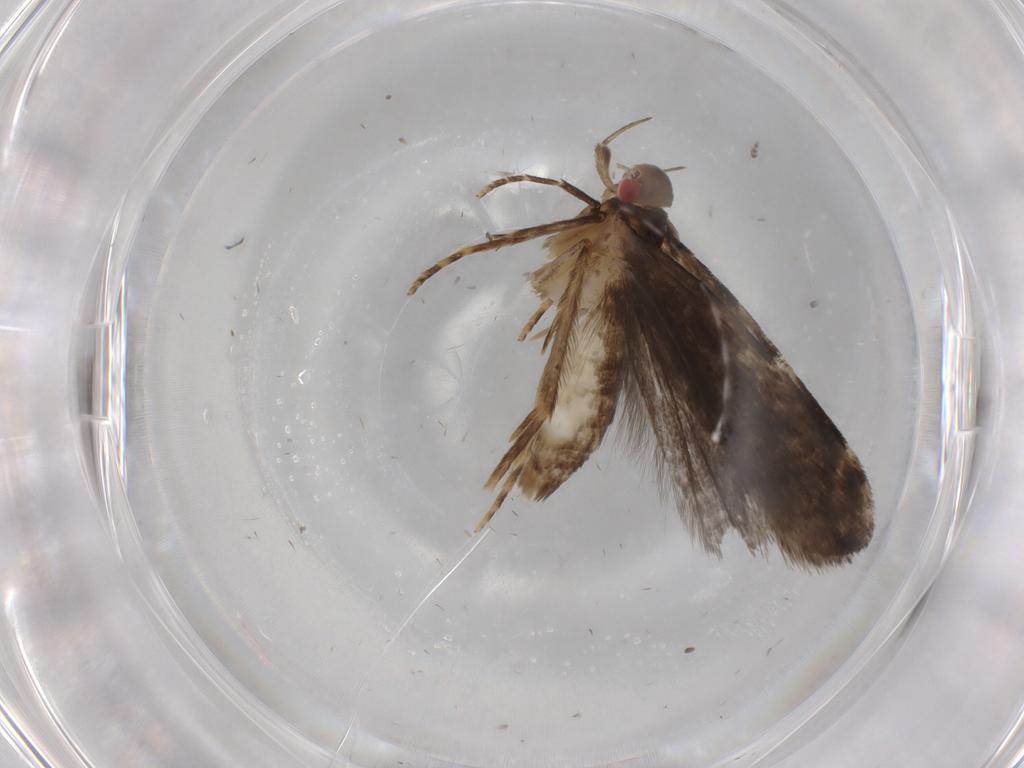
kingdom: Animalia
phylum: Arthropoda
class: Insecta
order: Lepidoptera
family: Gelechiidae
